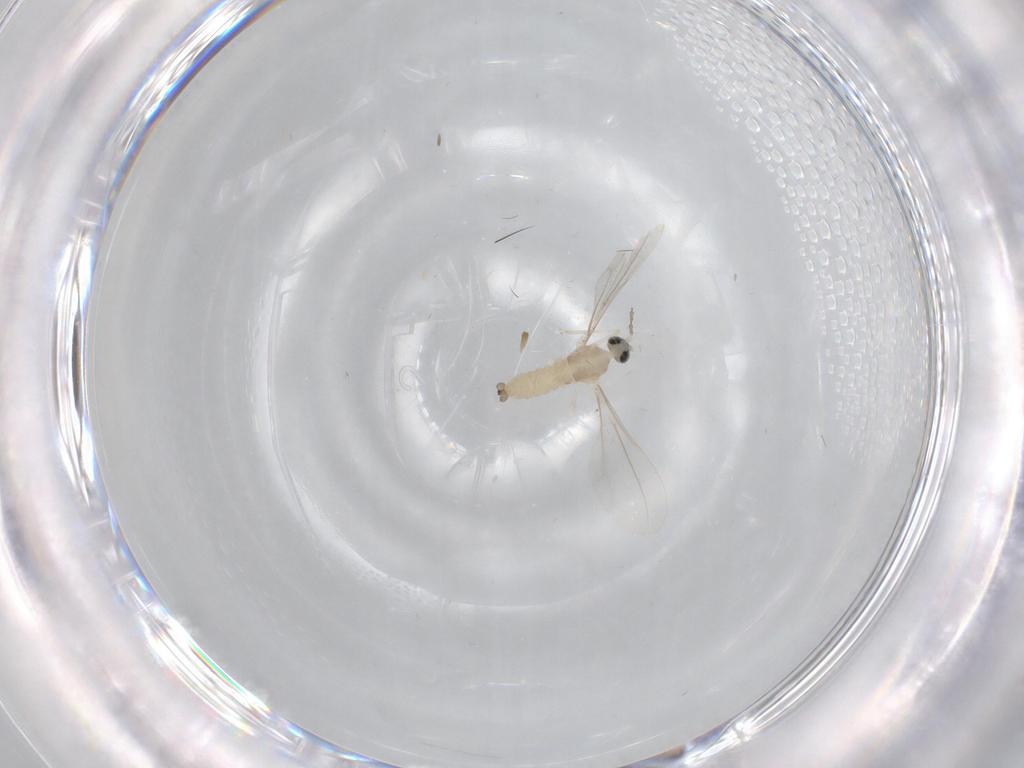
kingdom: Animalia
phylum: Arthropoda
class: Insecta
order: Diptera
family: Cecidomyiidae
